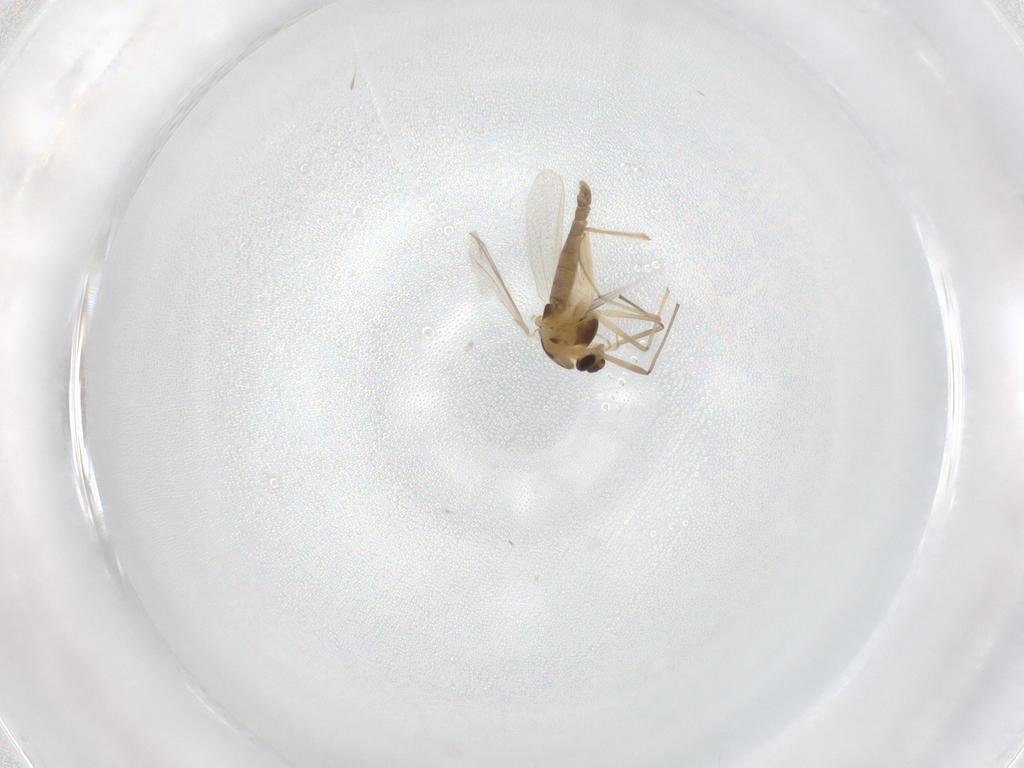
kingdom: Animalia
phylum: Arthropoda
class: Insecta
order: Diptera
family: Chironomidae
